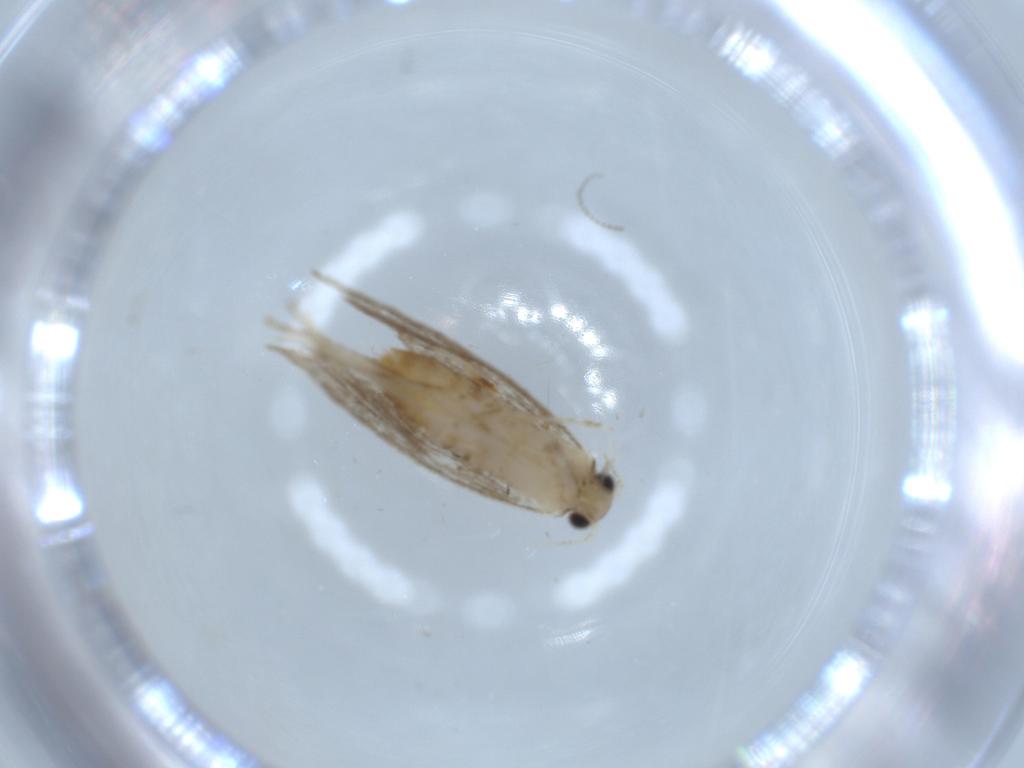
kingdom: Animalia
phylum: Arthropoda
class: Insecta
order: Lepidoptera
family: Tineidae
